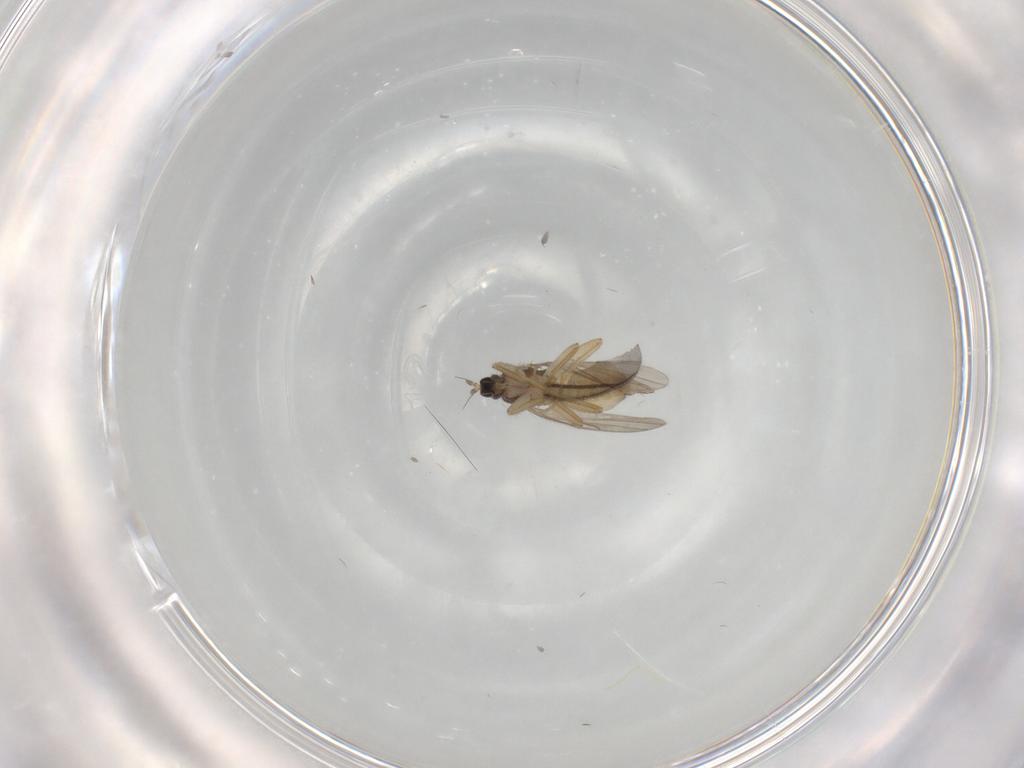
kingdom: Animalia
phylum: Arthropoda
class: Insecta
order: Diptera
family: Hybotidae
